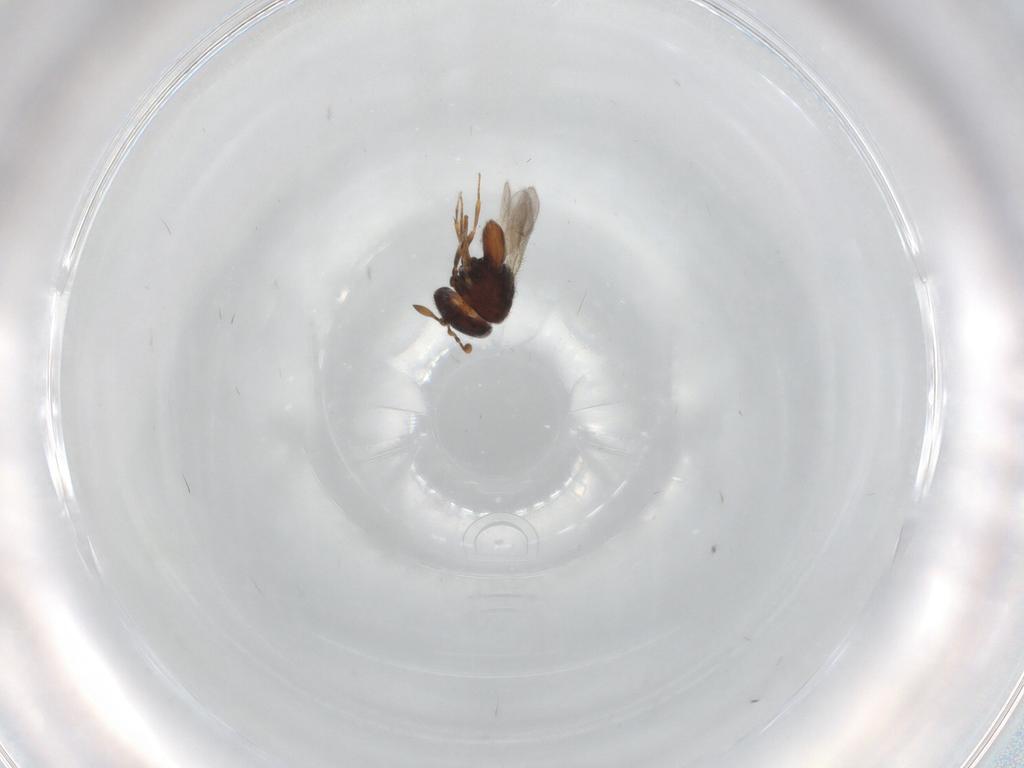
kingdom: Animalia
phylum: Arthropoda
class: Insecta
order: Hymenoptera
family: Scelionidae
